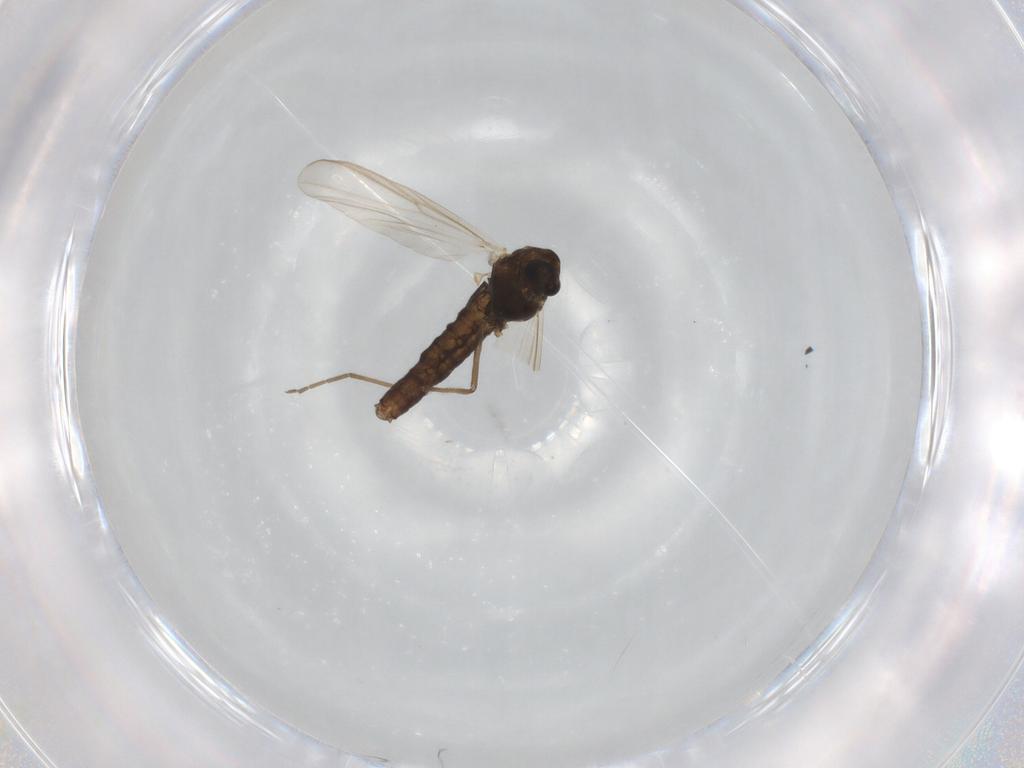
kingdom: Animalia
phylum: Arthropoda
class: Insecta
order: Diptera
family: Chironomidae
